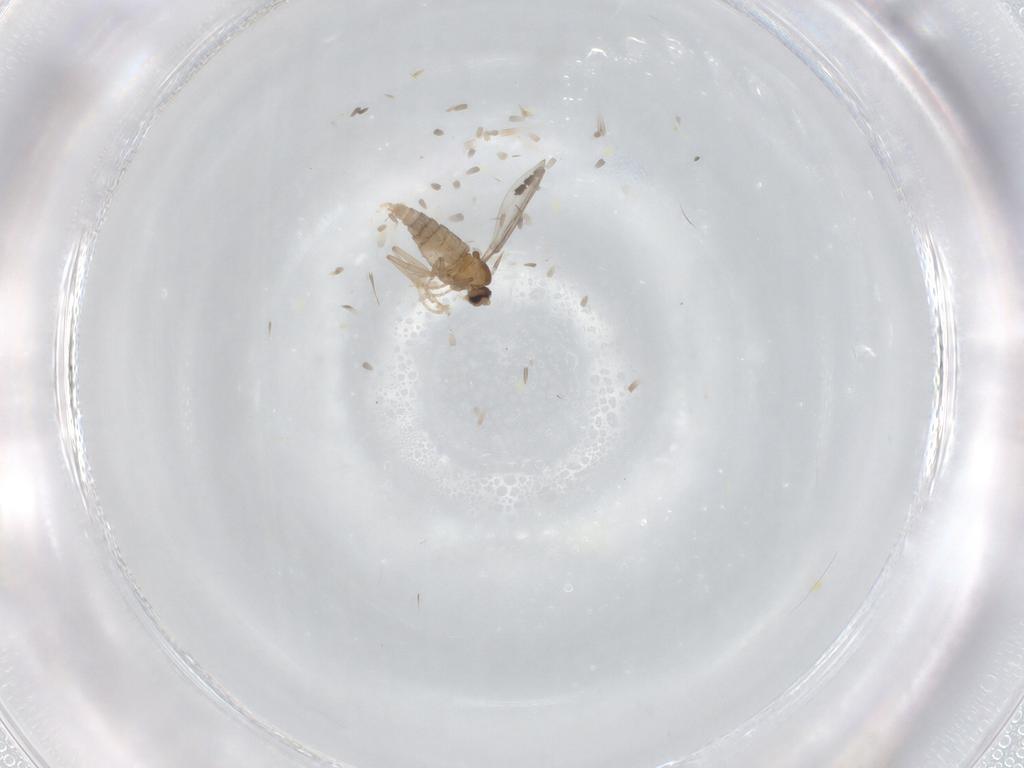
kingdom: Animalia
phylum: Arthropoda
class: Insecta
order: Diptera
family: Cecidomyiidae
